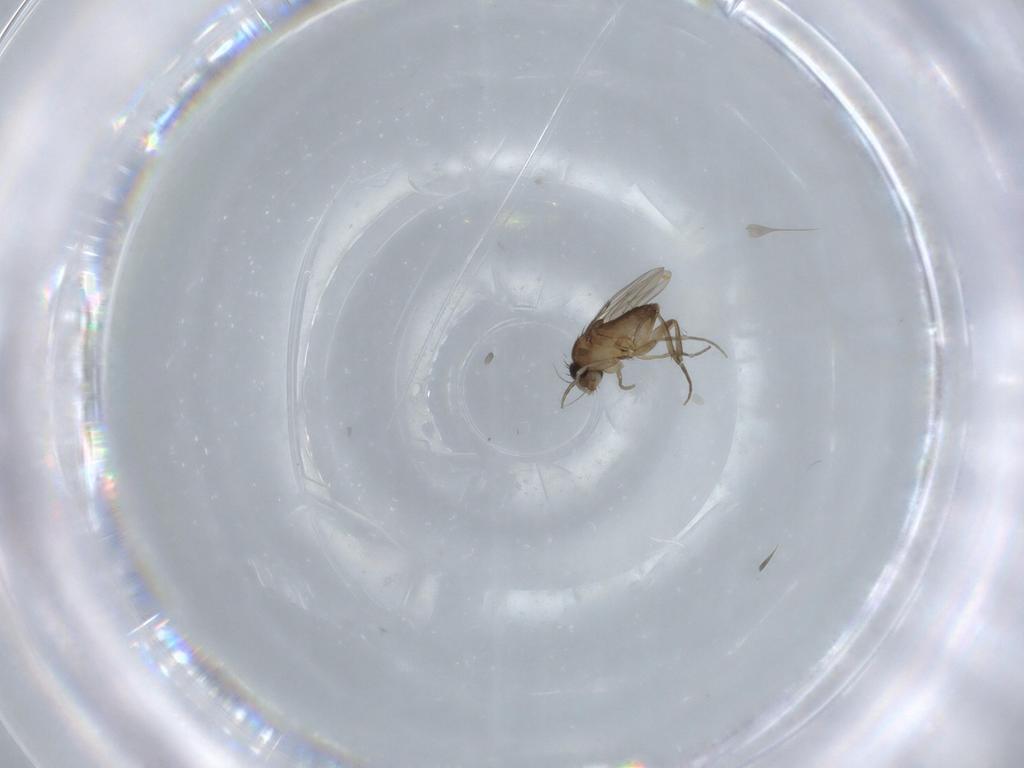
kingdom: Animalia
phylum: Arthropoda
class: Insecta
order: Diptera
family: Phoridae
